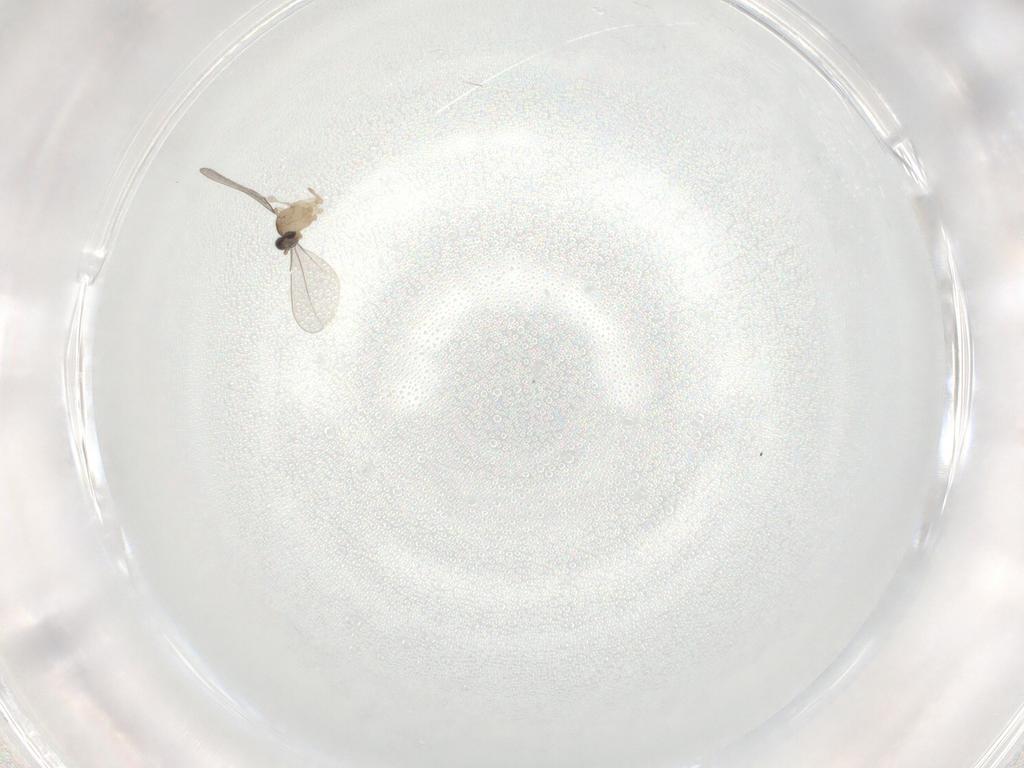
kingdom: Animalia
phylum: Arthropoda
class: Insecta
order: Diptera
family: Cecidomyiidae
